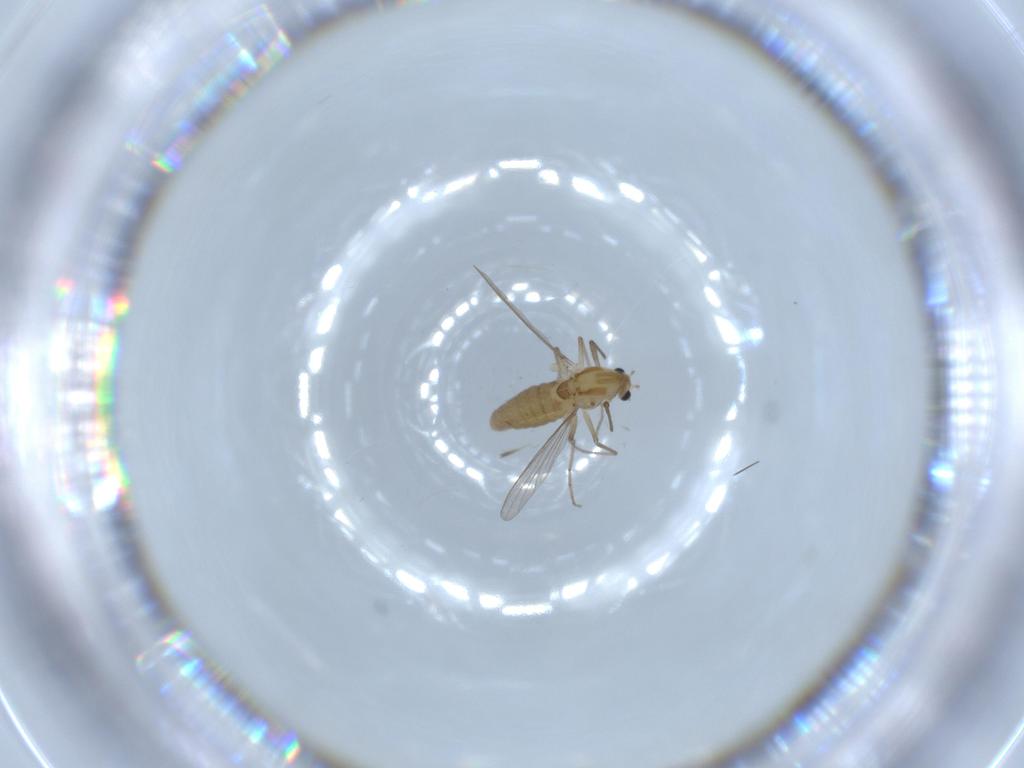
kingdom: Animalia
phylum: Arthropoda
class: Insecta
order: Diptera
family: Chironomidae
